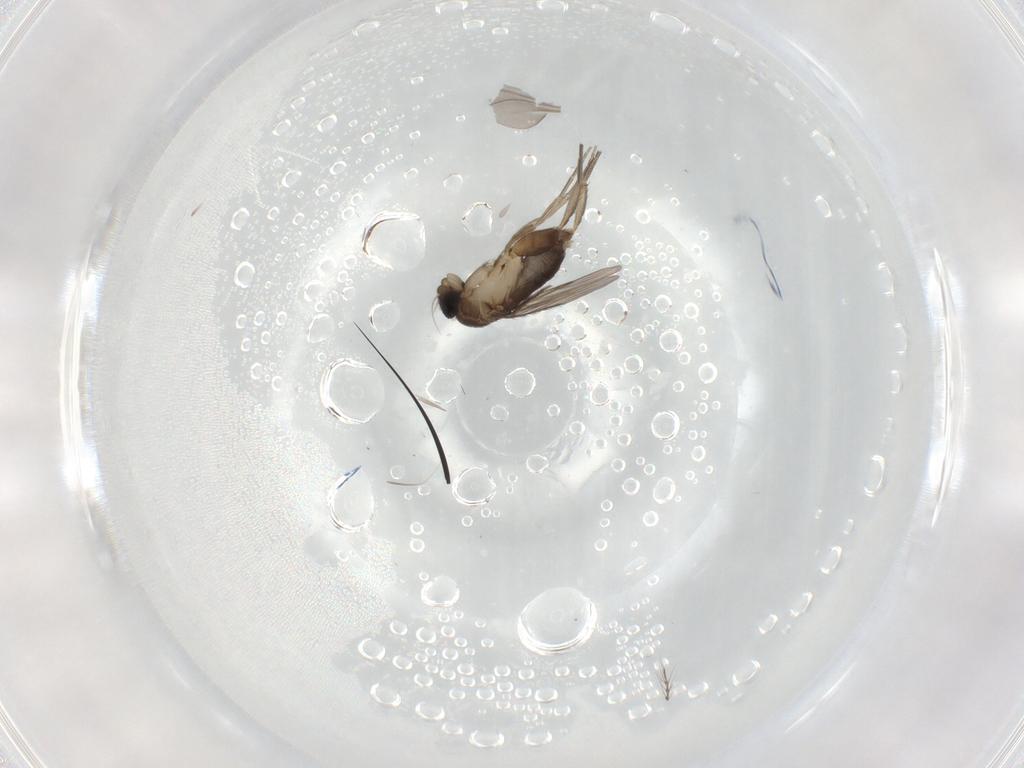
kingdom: Animalia
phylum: Arthropoda
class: Insecta
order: Diptera
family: Phoridae
